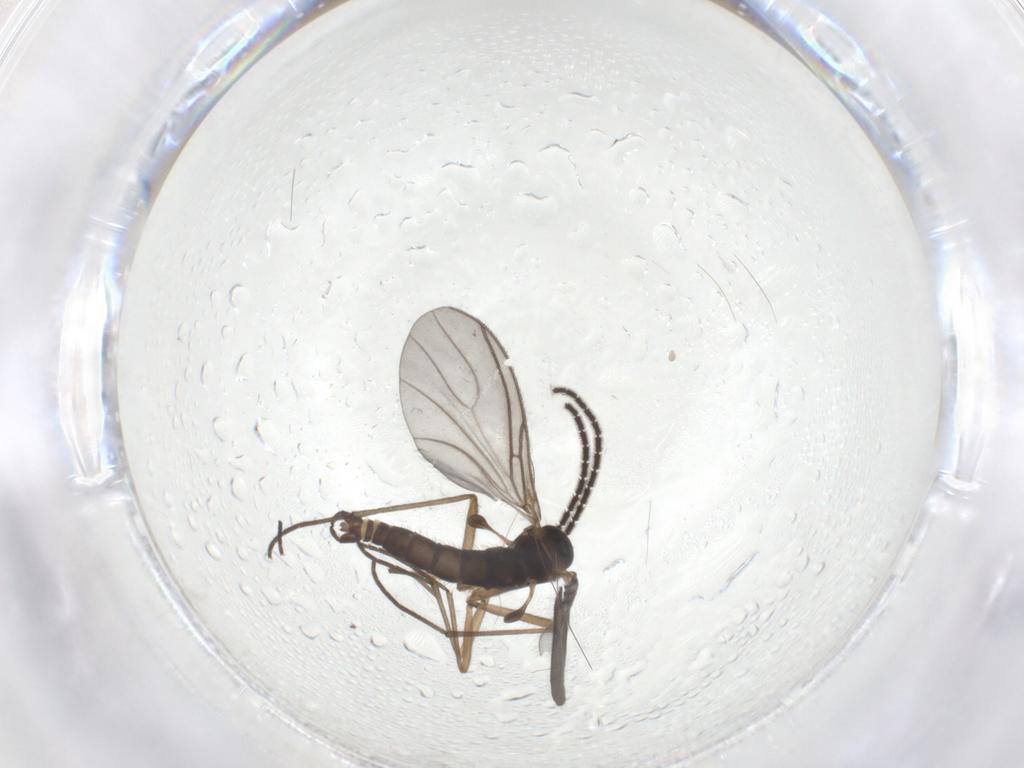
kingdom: Animalia
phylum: Arthropoda
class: Insecta
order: Diptera
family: Sciaridae
